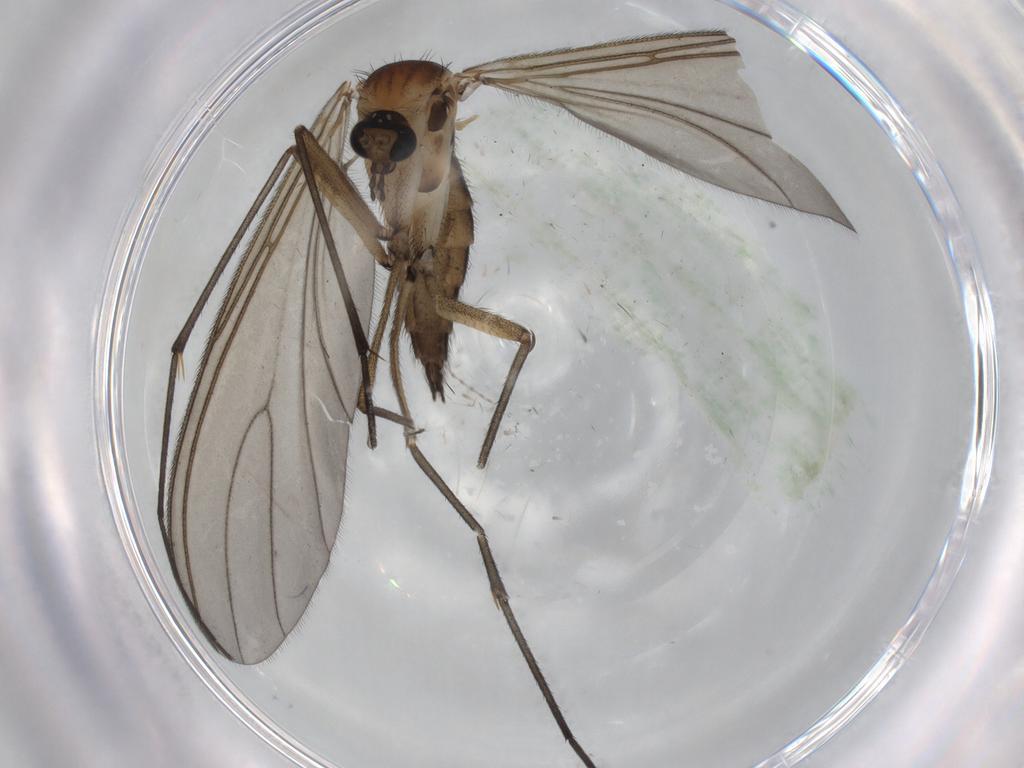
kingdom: Animalia
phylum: Arthropoda
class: Insecta
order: Diptera
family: Sciaridae
